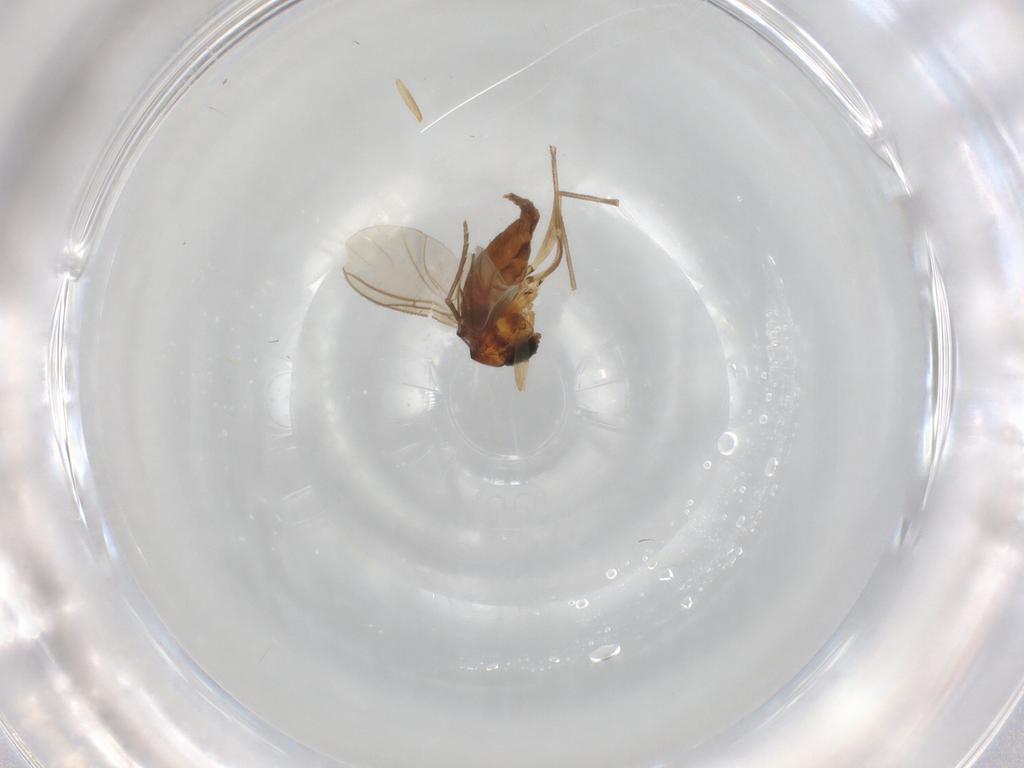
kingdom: Animalia
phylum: Arthropoda
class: Insecta
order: Diptera
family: Psychodidae
